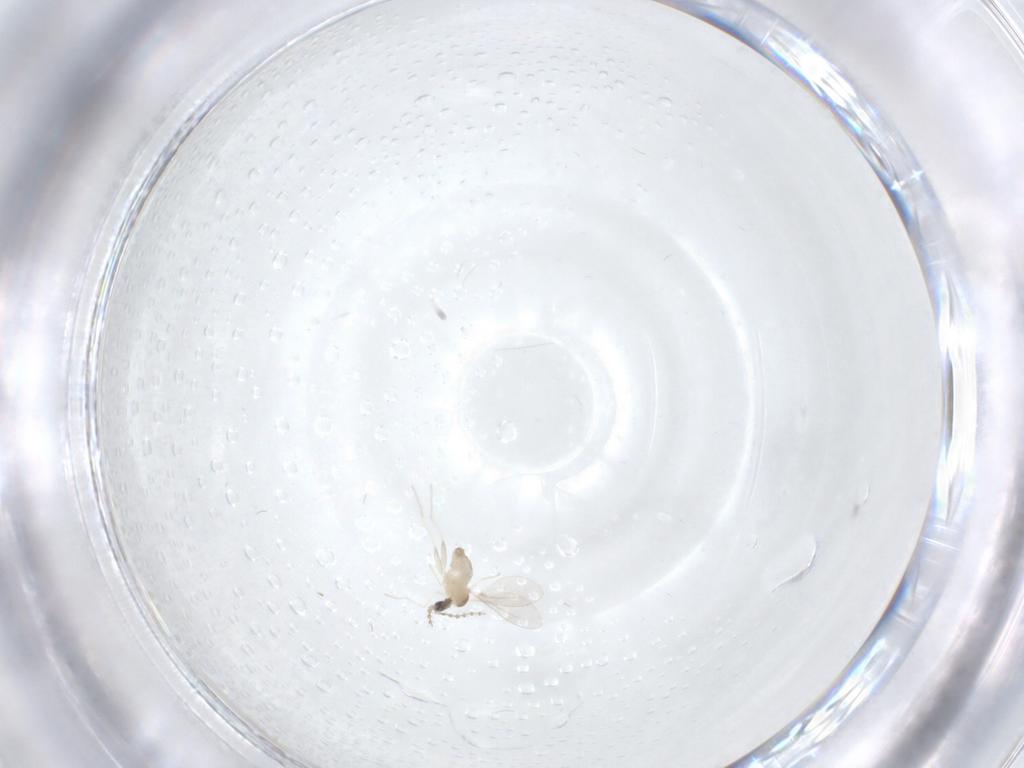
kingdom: Animalia
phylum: Arthropoda
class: Insecta
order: Diptera
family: Cecidomyiidae
